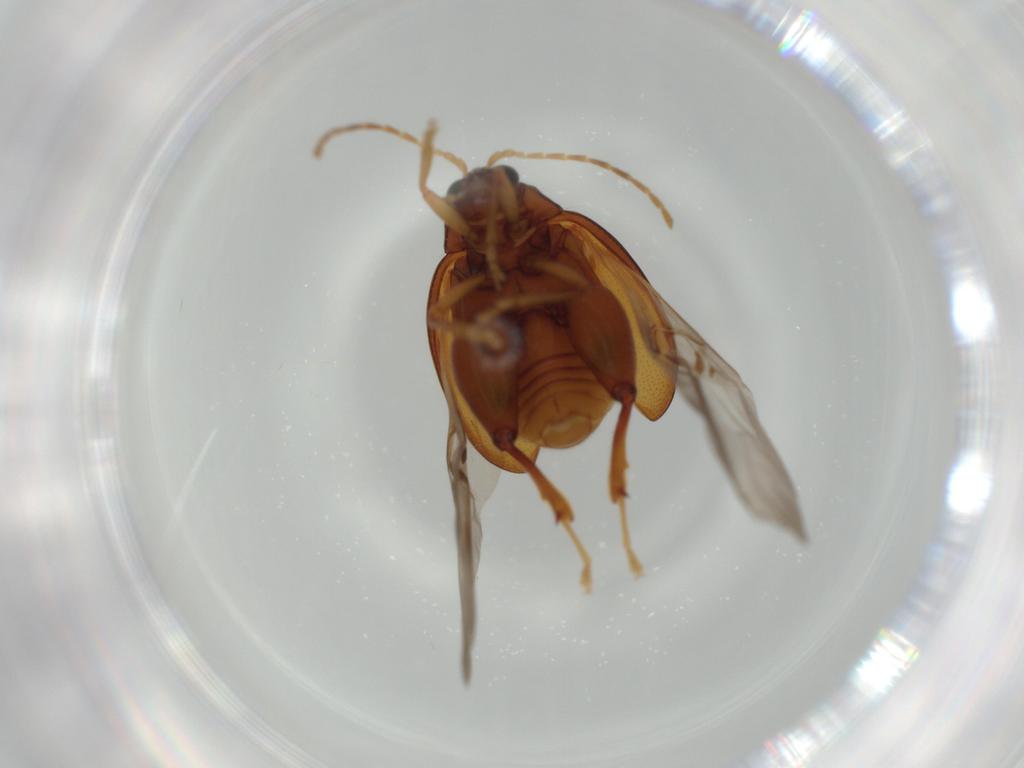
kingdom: Animalia
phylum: Arthropoda
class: Insecta
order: Coleoptera
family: Chrysomelidae
